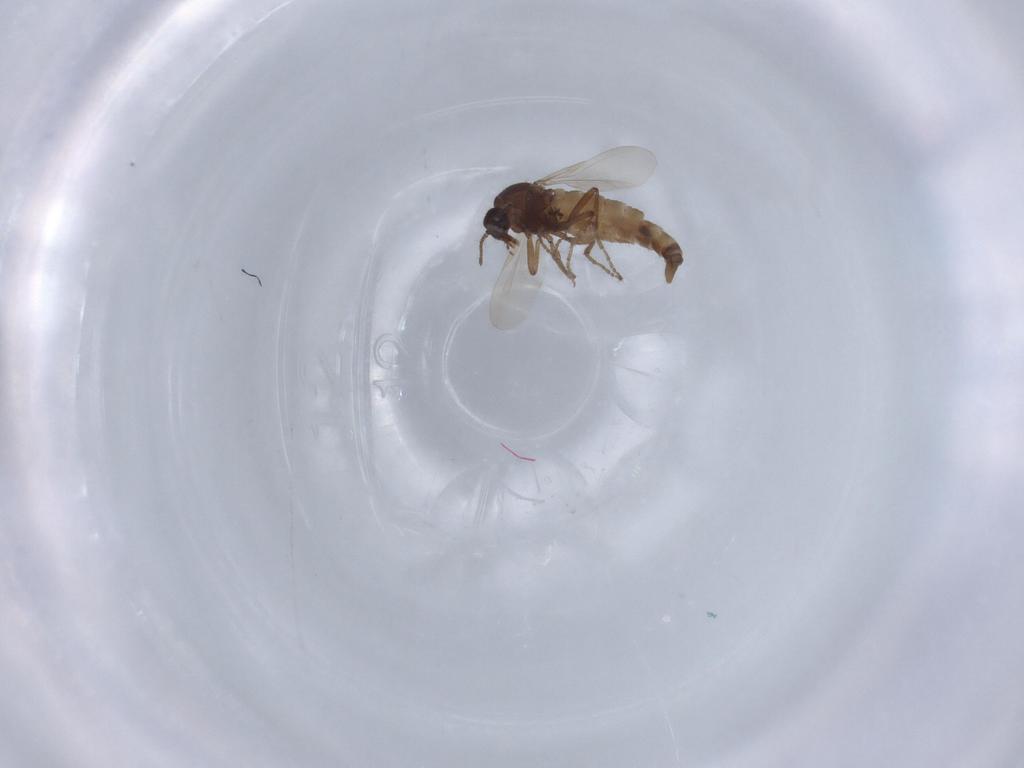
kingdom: Animalia
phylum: Arthropoda
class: Insecta
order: Diptera
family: Ceratopogonidae
